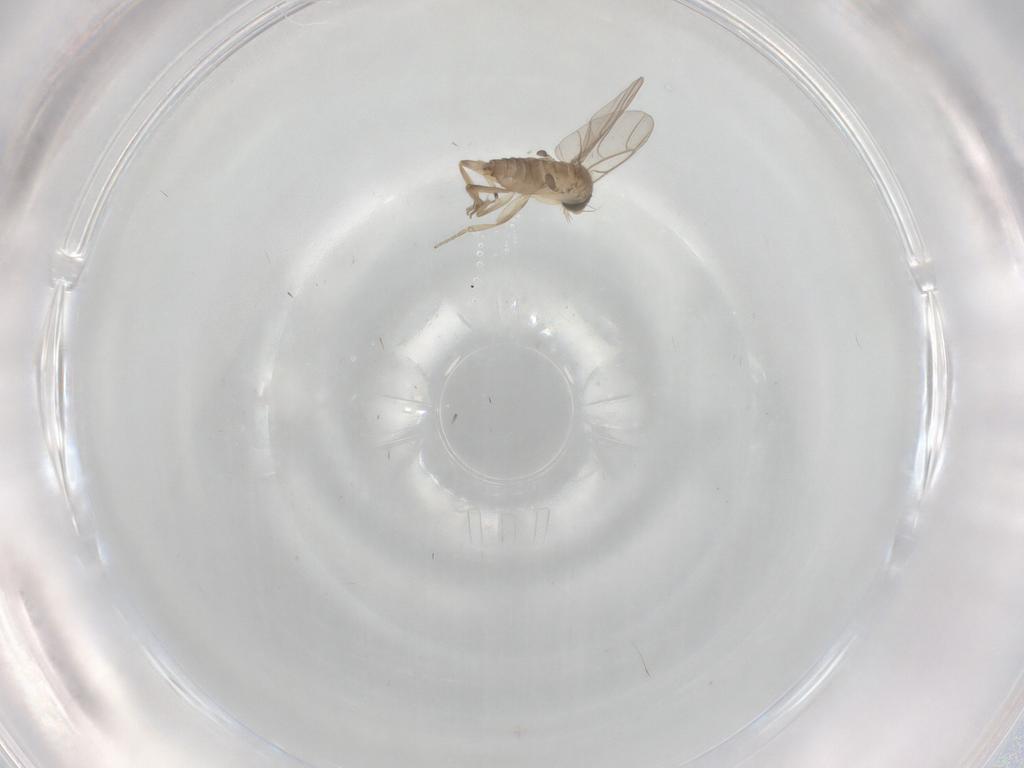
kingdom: Animalia
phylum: Arthropoda
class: Insecta
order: Diptera
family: Phoridae
